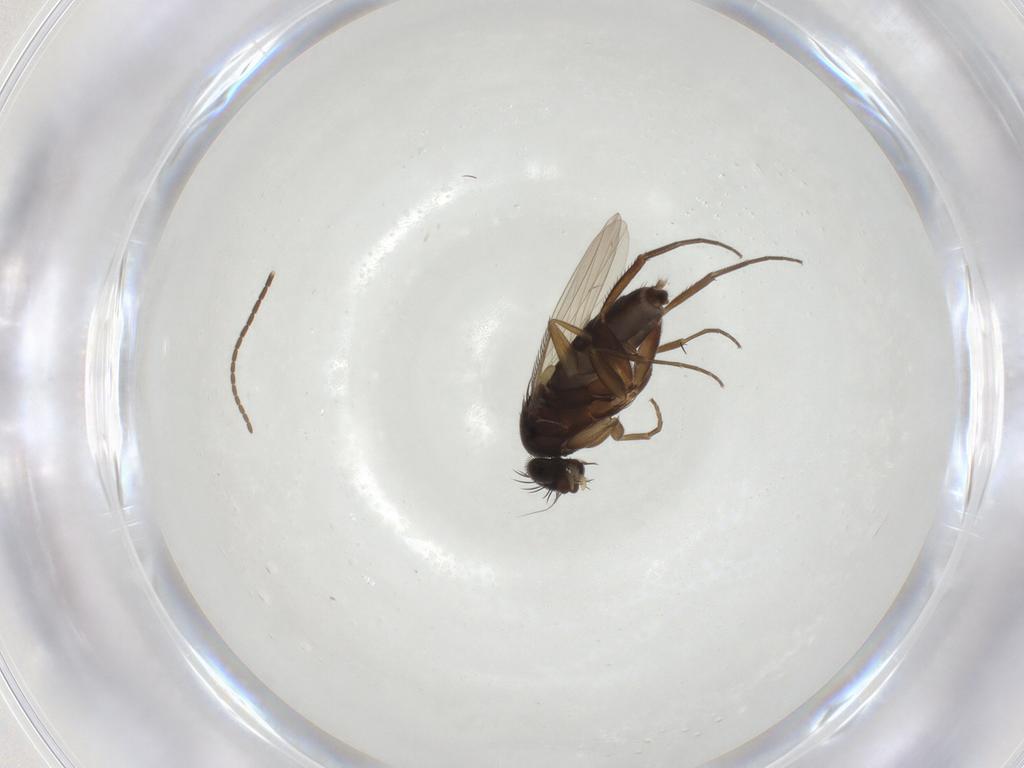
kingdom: Animalia
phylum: Arthropoda
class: Insecta
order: Diptera
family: Phoridae
